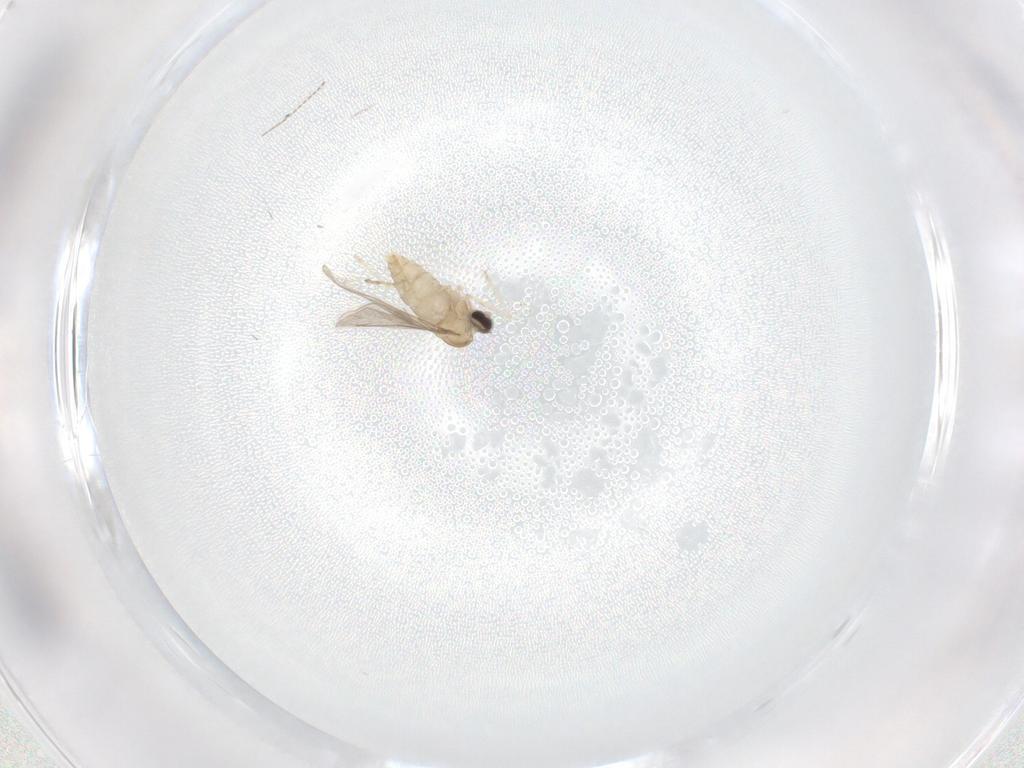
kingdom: Animalia
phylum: Arthropoda
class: Insecta
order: Diptera
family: Cecidomyiidae
